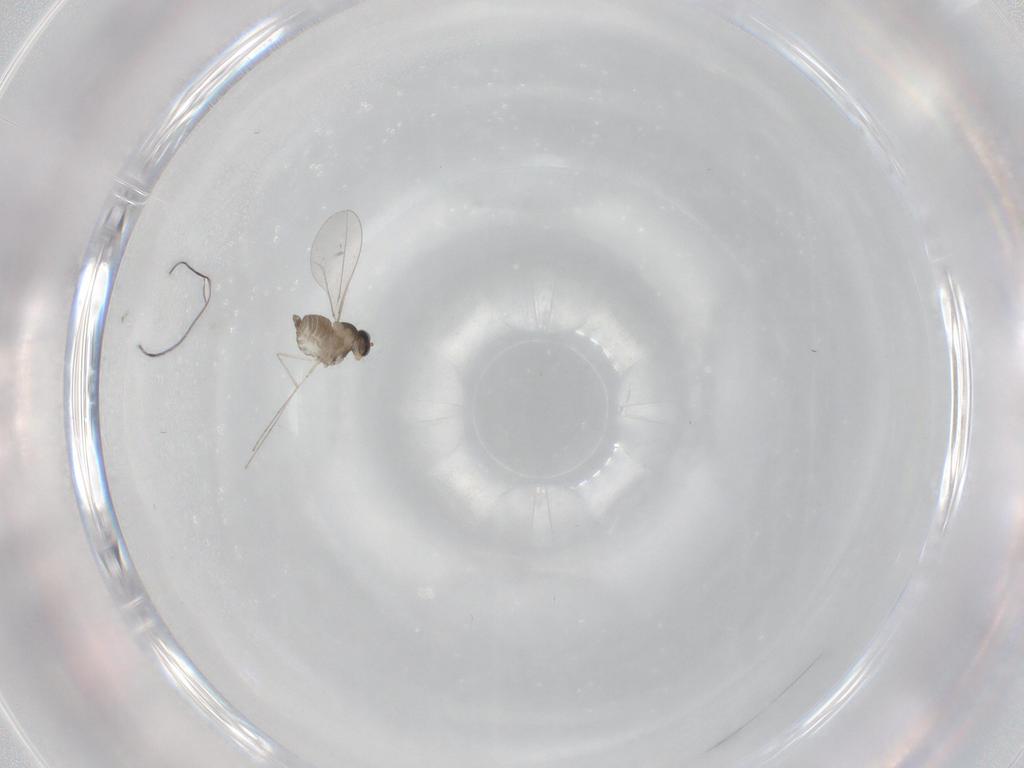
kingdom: Animalia
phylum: Arthropoda
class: Insecta
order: Diptera
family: Cecidomyiidae
